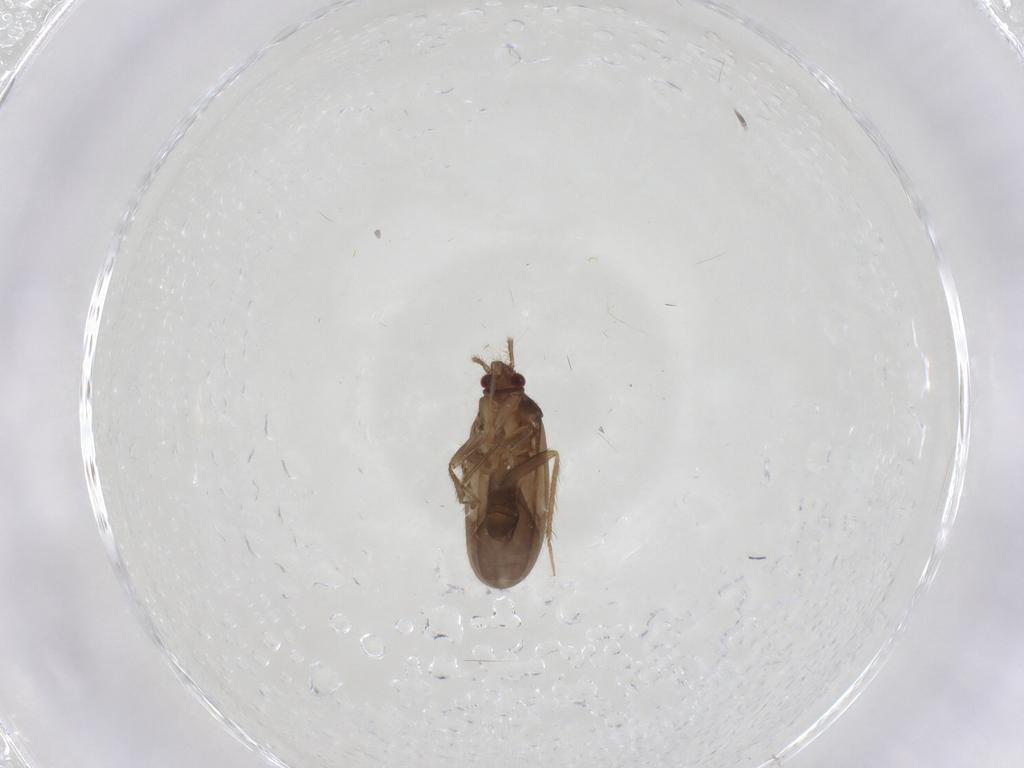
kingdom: Animalia
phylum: Arthropoda
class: Insecta
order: Hemiptera
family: Ceratocombidae
